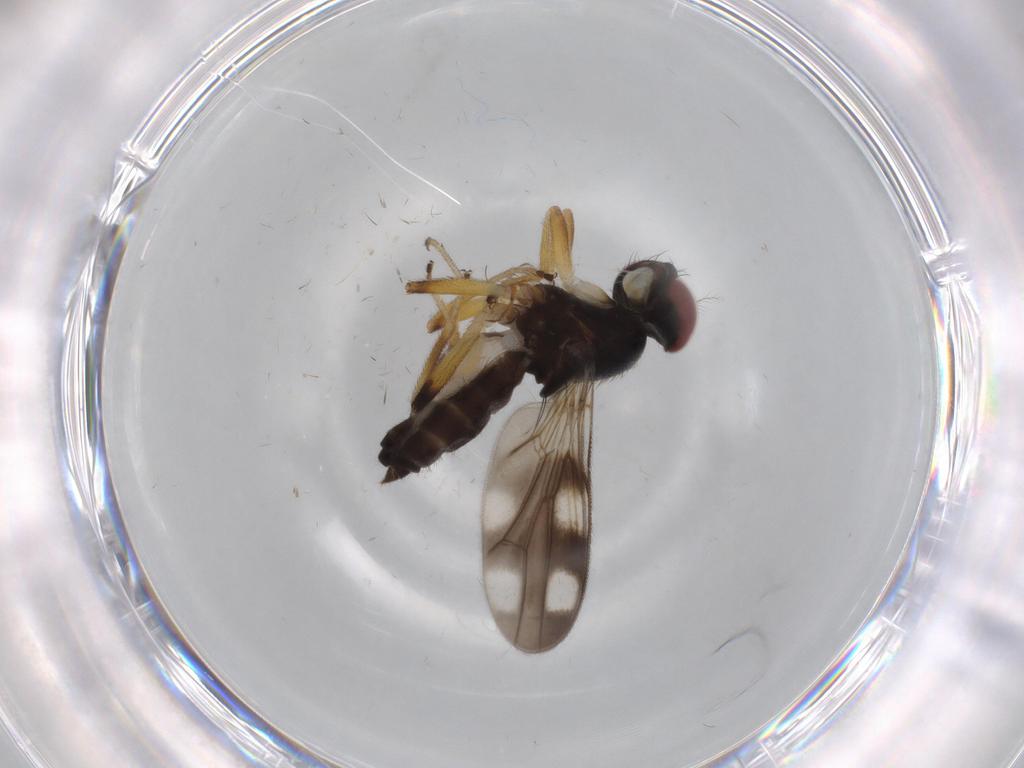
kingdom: Animalia
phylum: Arthropoda
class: Insecta
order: Diptera
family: Periscelididae
